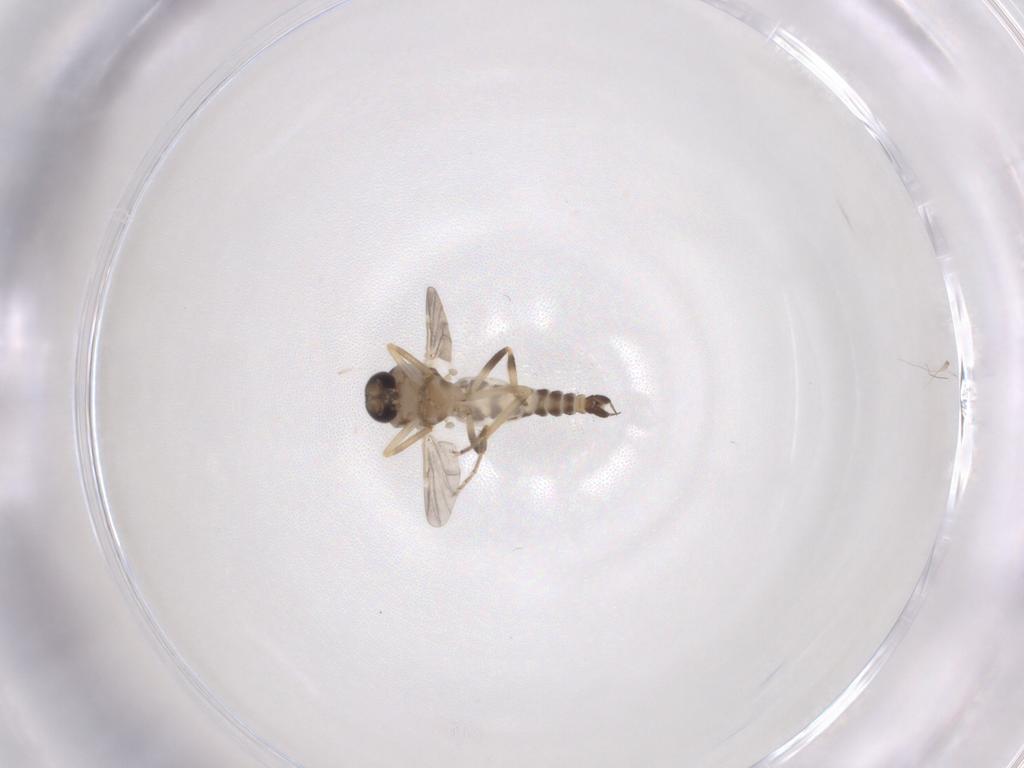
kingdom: Animalia
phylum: Arthropoda
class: Insecta
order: Diptera
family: Ceratopogonidae
